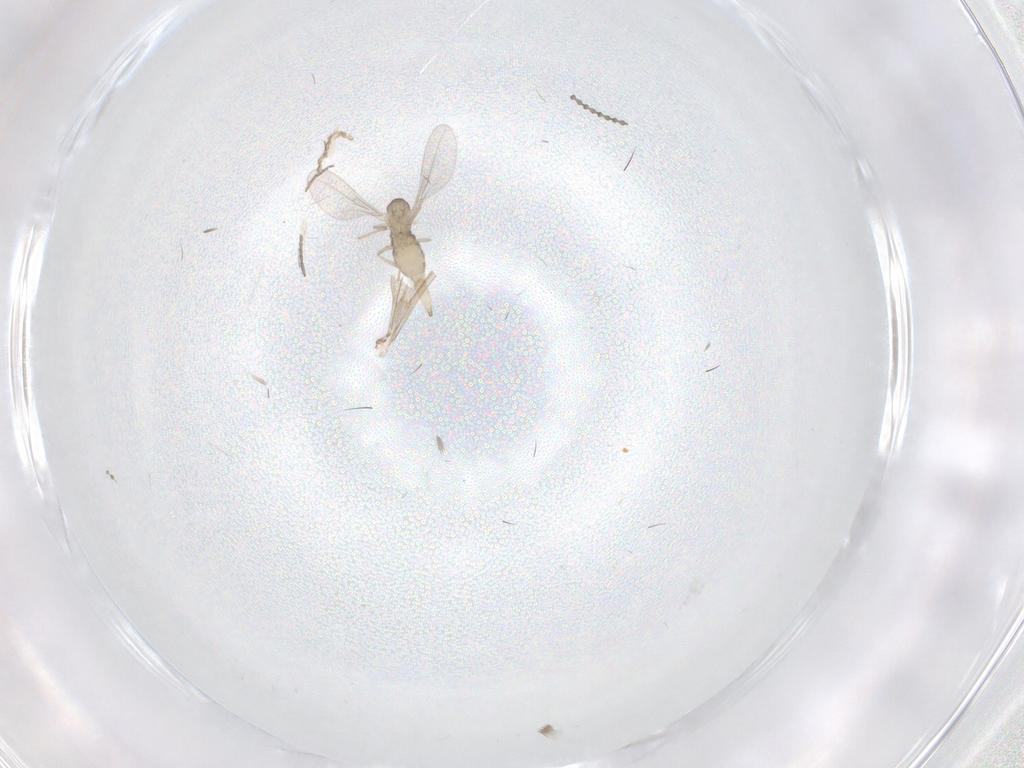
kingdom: Animalia
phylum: Arthropoda
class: Insecta
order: Diptera
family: Cecidomyiidae
